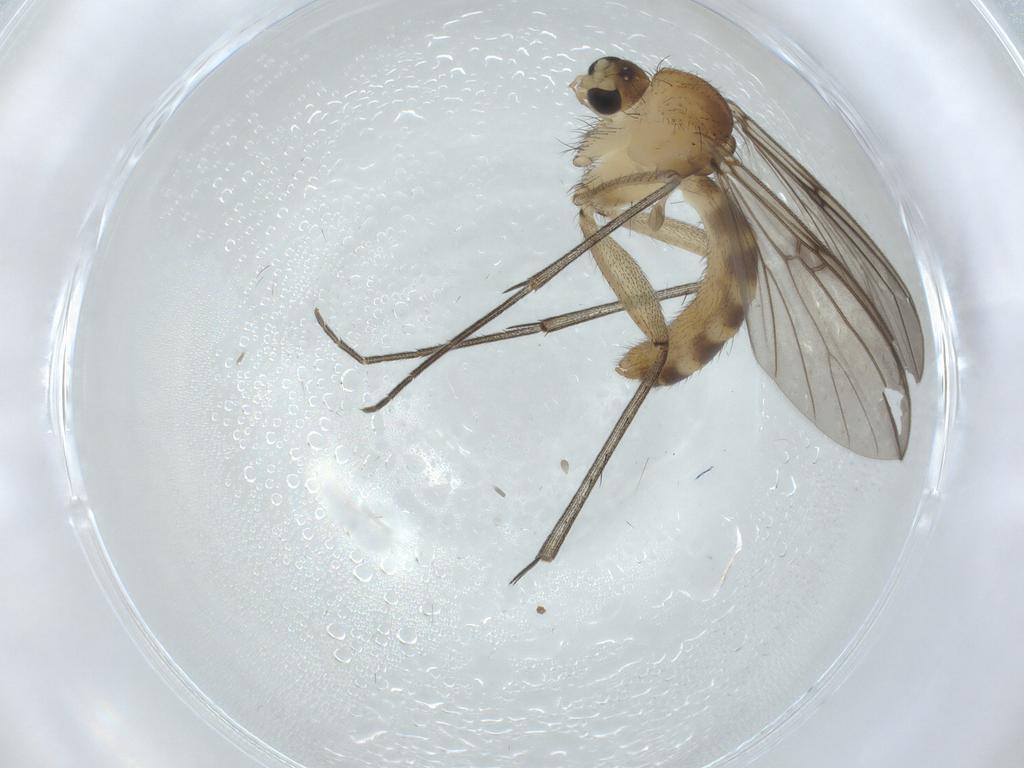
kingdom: Animalia
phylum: Arthropoda
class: Insecta
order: Diptera
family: Mycetophilidae
